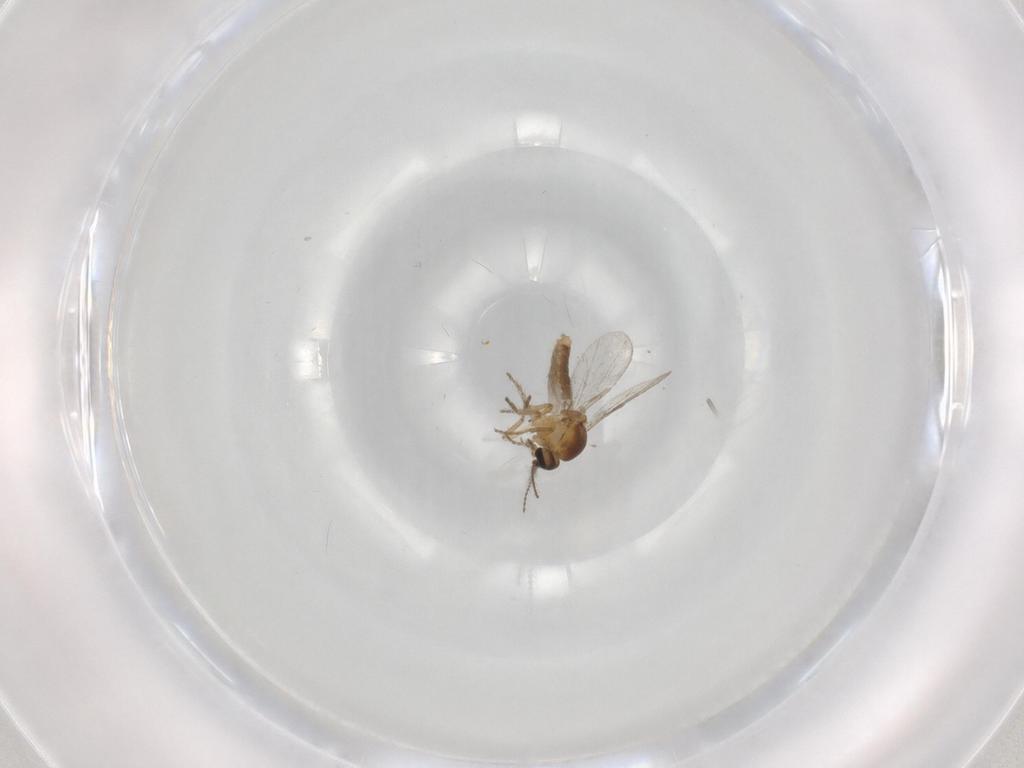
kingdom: Animalia
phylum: Arthropoda
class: Insecta
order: Diptera
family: Ceratopogonidae
